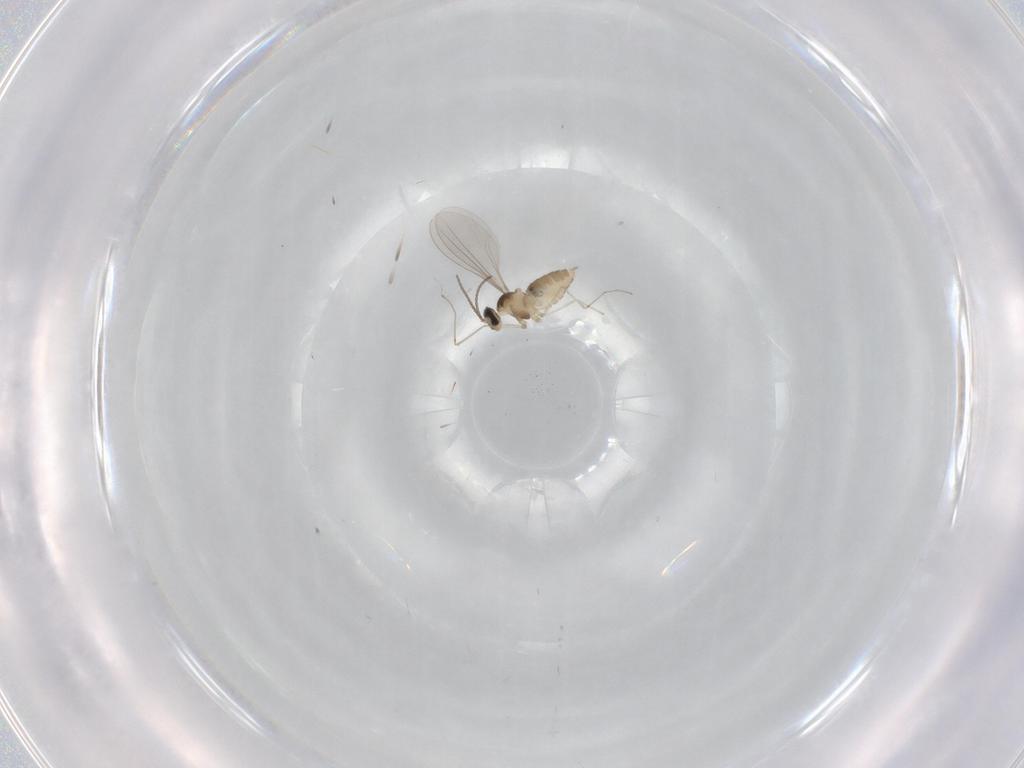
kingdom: Animalia
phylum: Arthropoda
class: Insecta
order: Diptera
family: Cecidomyiidae
